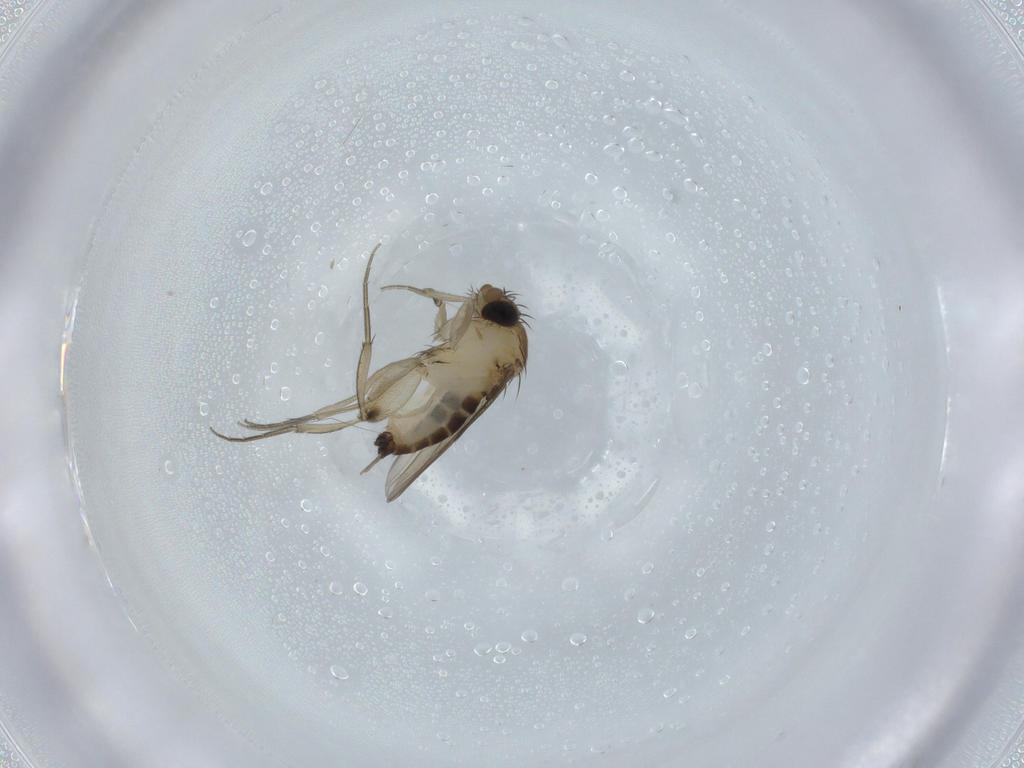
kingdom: Animalia
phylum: Arthropoda
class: Insecta
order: Diptera
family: Phoridae
